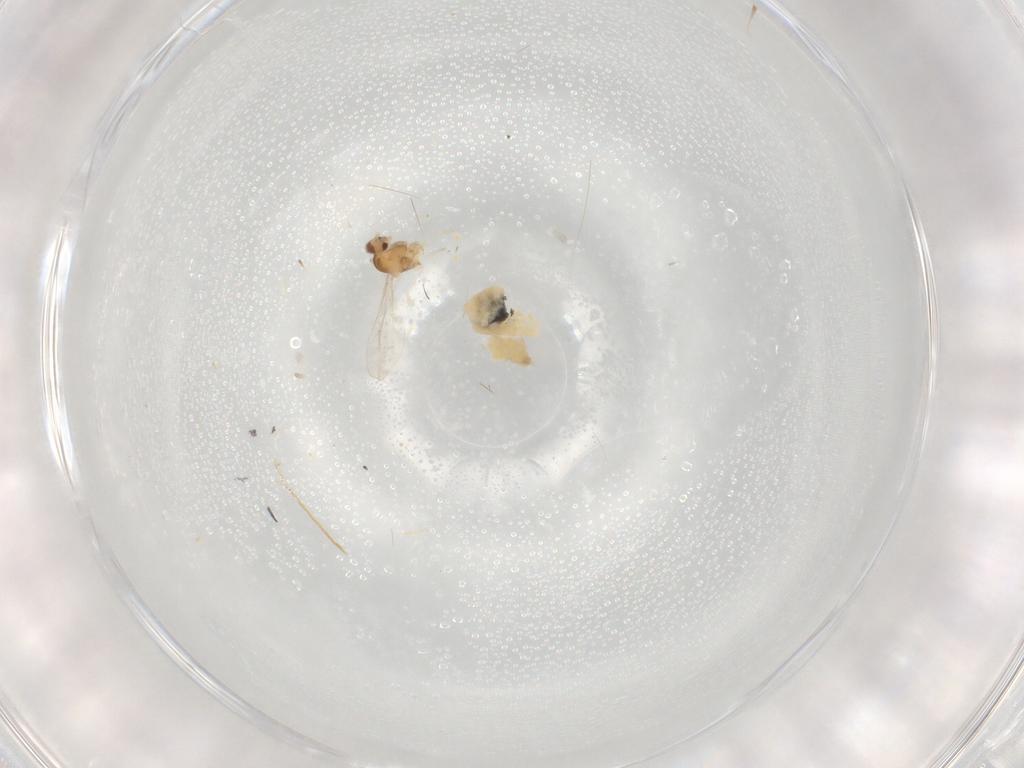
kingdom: Animalia
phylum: Arthropoda
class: Insecta
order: Diptera
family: Cecidomyiidae
